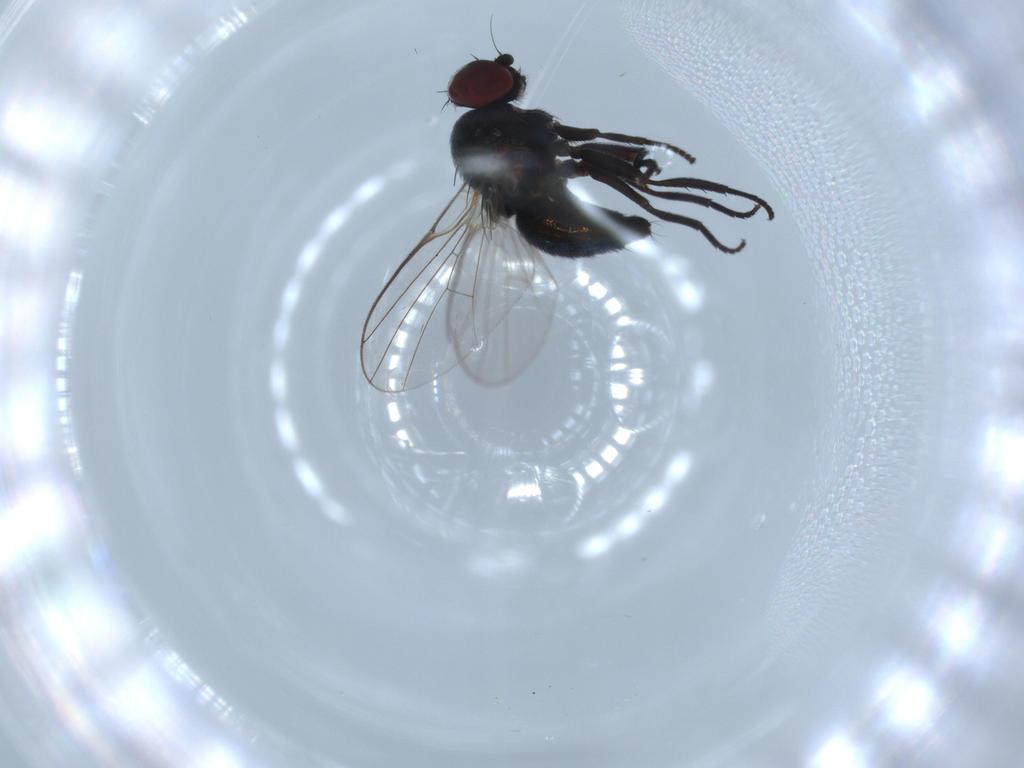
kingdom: Animalia
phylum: Arthropoda
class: Insecta
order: Diptera
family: Agromyzidae
